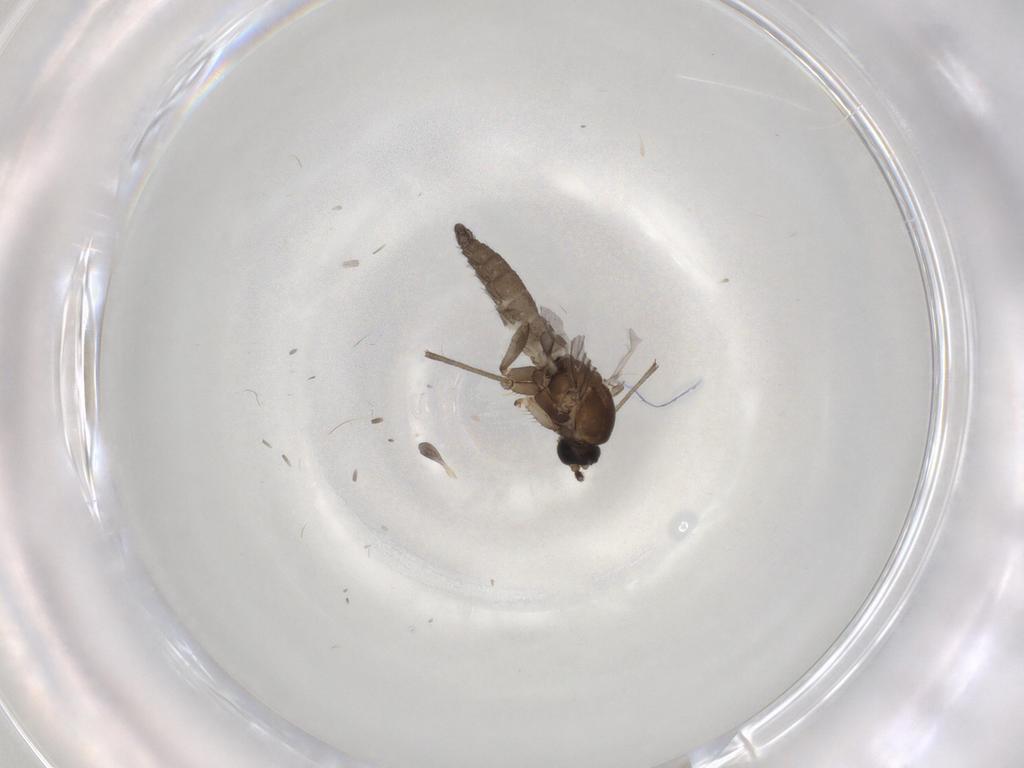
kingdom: Animalia
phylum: Arthropoda
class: Insecta
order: Diptera
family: Sciaridae
